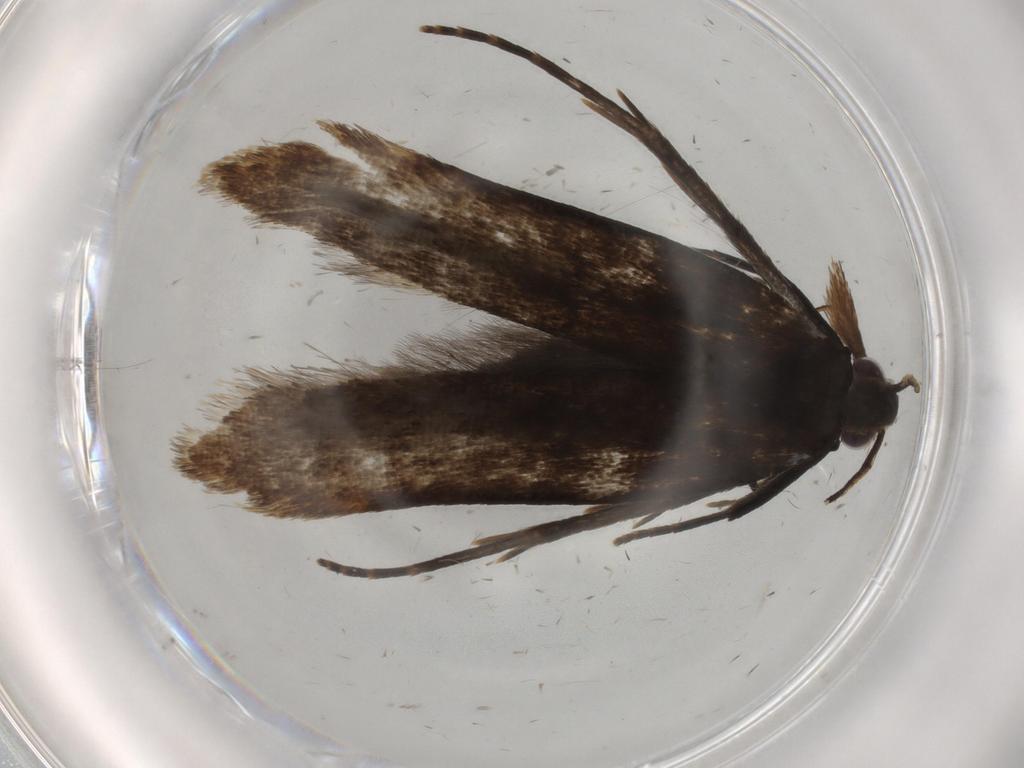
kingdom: Animalia
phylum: Arthropoda
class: Insecta
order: Lepidoptera
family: Gelechiidae
